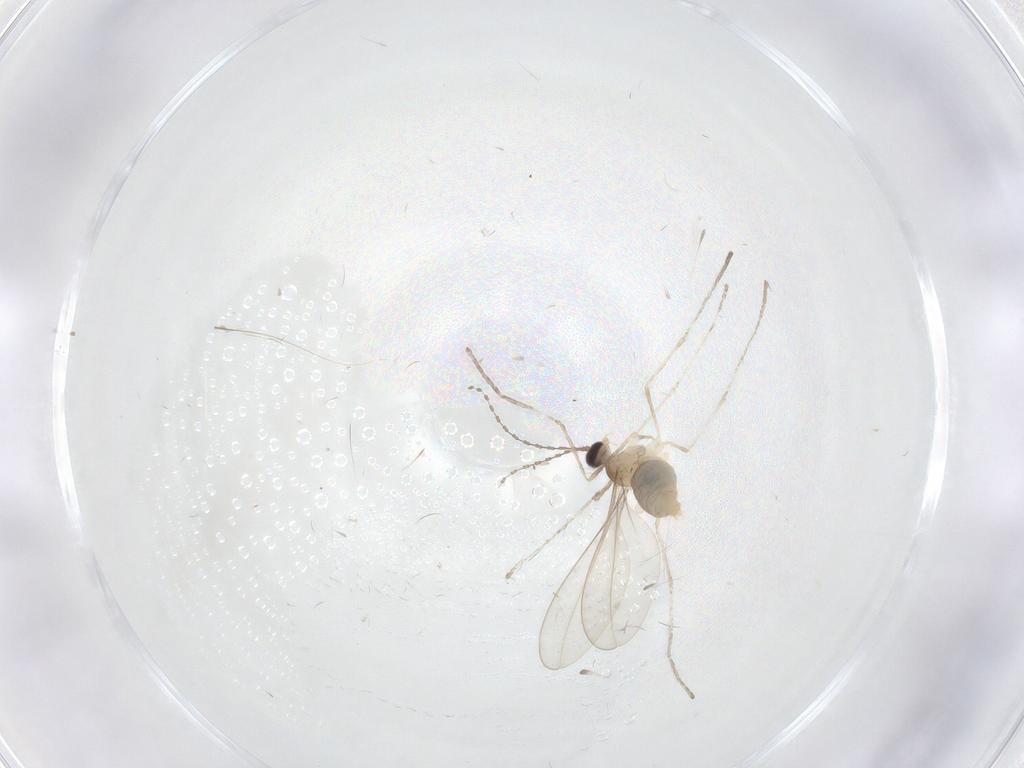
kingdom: Animalia
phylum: Arthropoda
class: Insecta
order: Diptera
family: Cecidomyiidae
